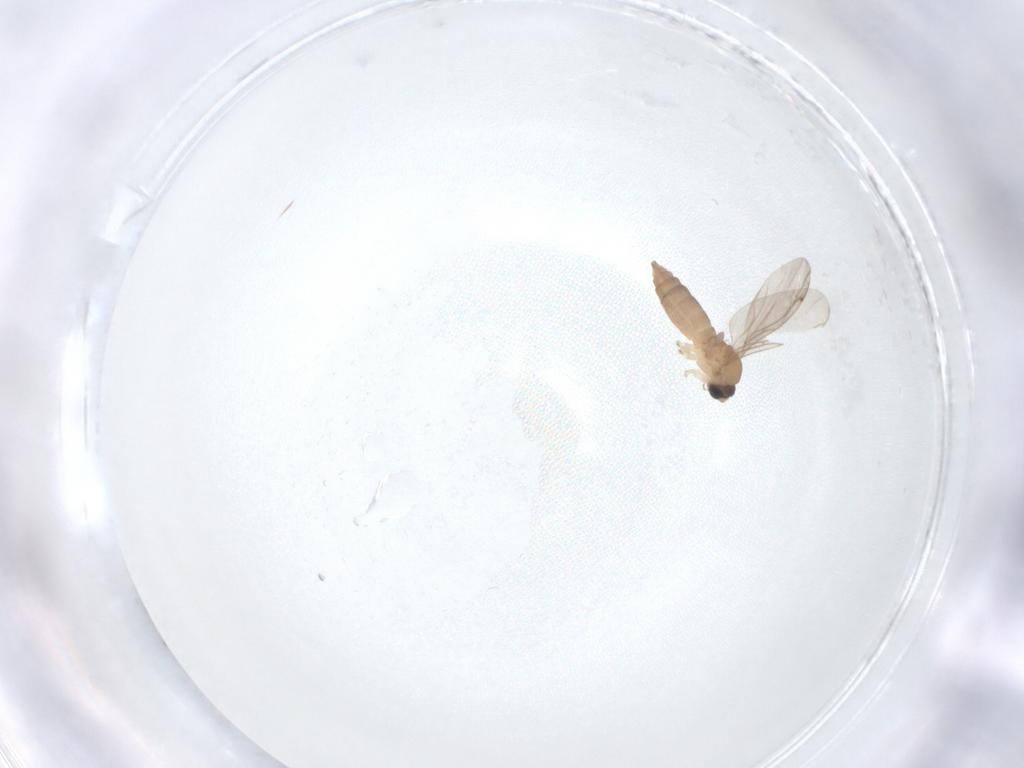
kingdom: Animalia
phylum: Arthropoda
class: Insecta
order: Diptera
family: Sciaridae
